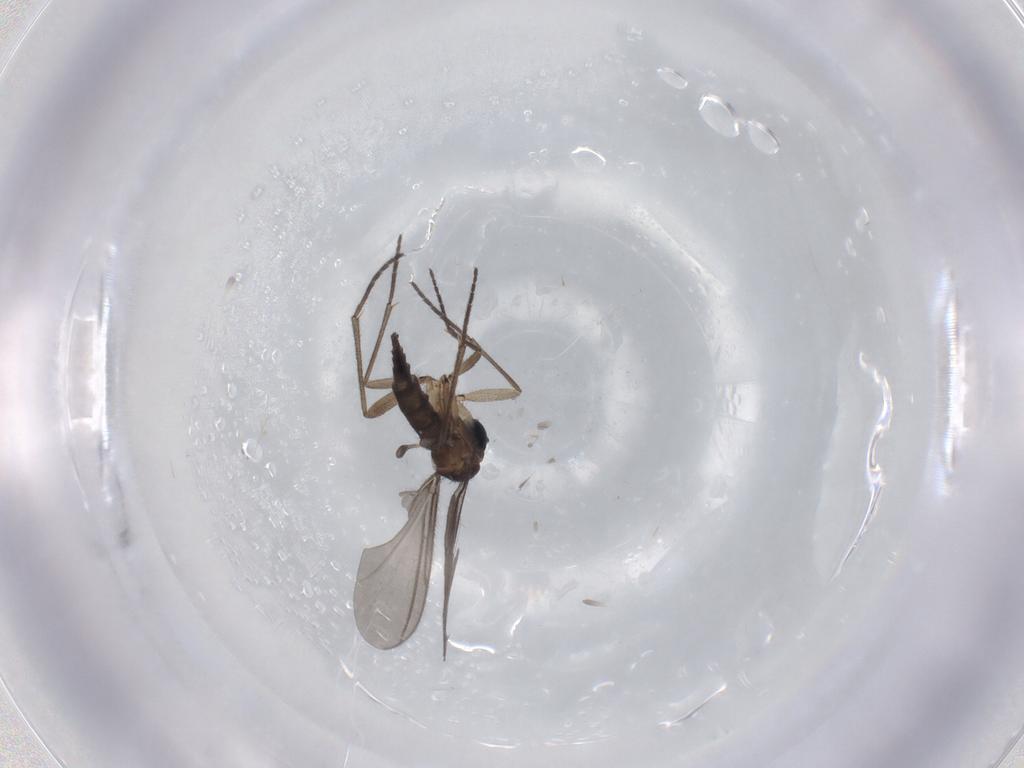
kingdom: Animalia
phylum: Arthropoda
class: Insecta
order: Diptera
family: Sciaridae
